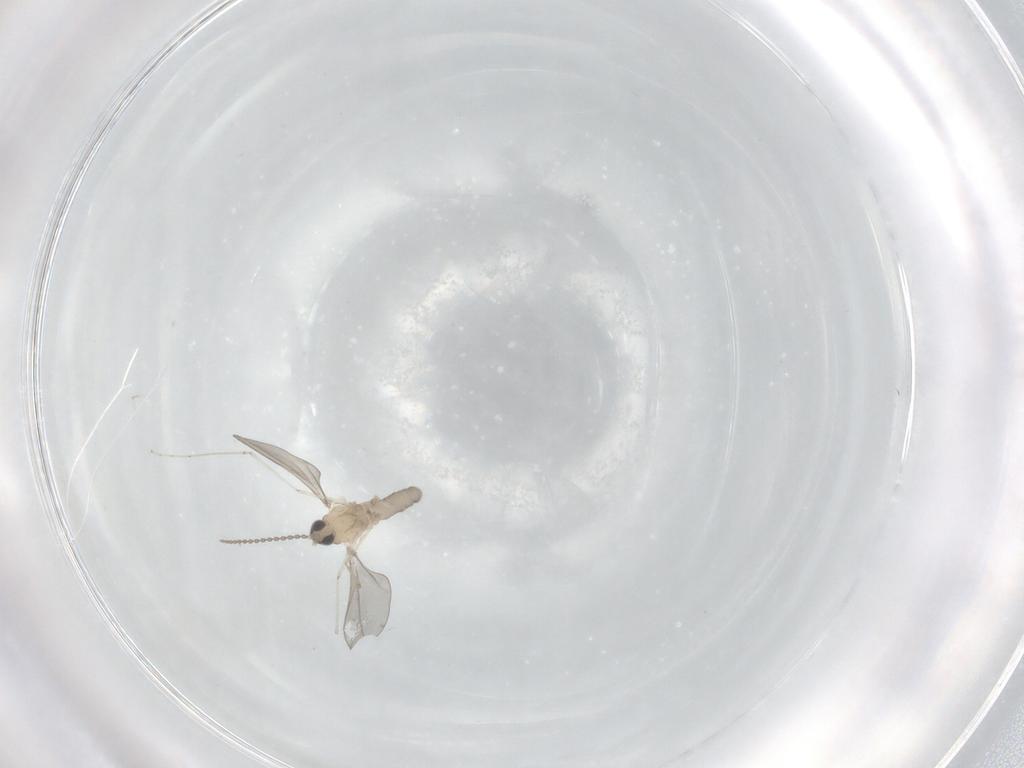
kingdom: Animalia
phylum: Arthropoda
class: Insecta
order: Diptera
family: Cecidomyiidae
